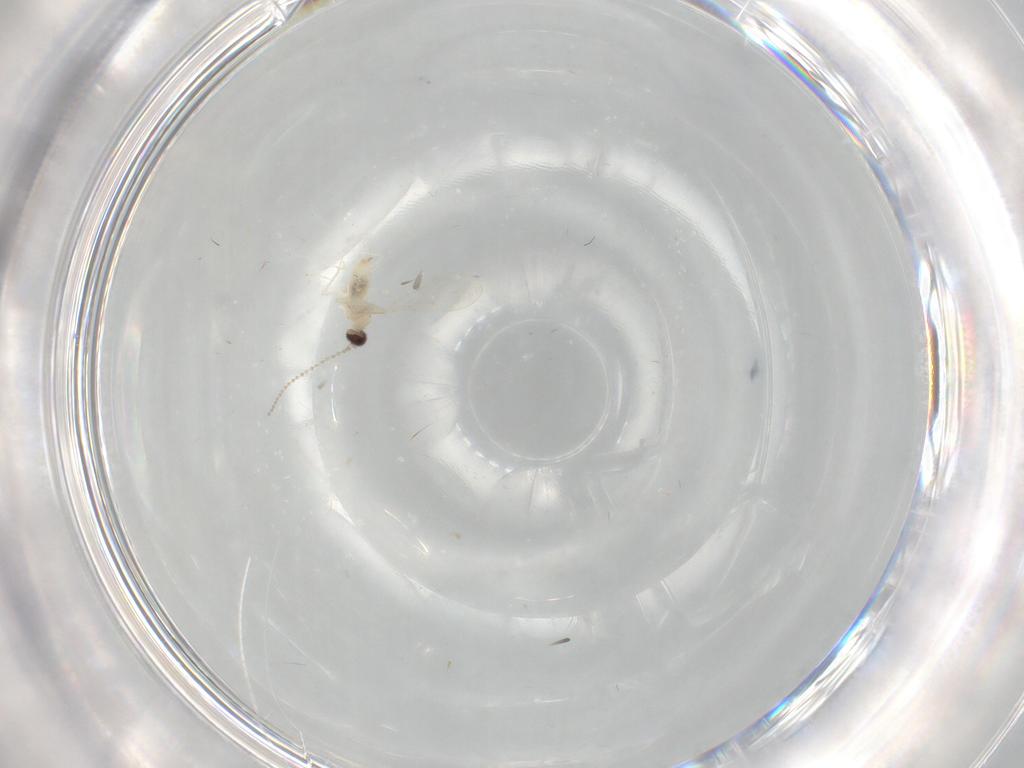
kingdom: Animalia
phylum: Arthropoda
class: Insecta
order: Diptera
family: Cecidomyiidae
